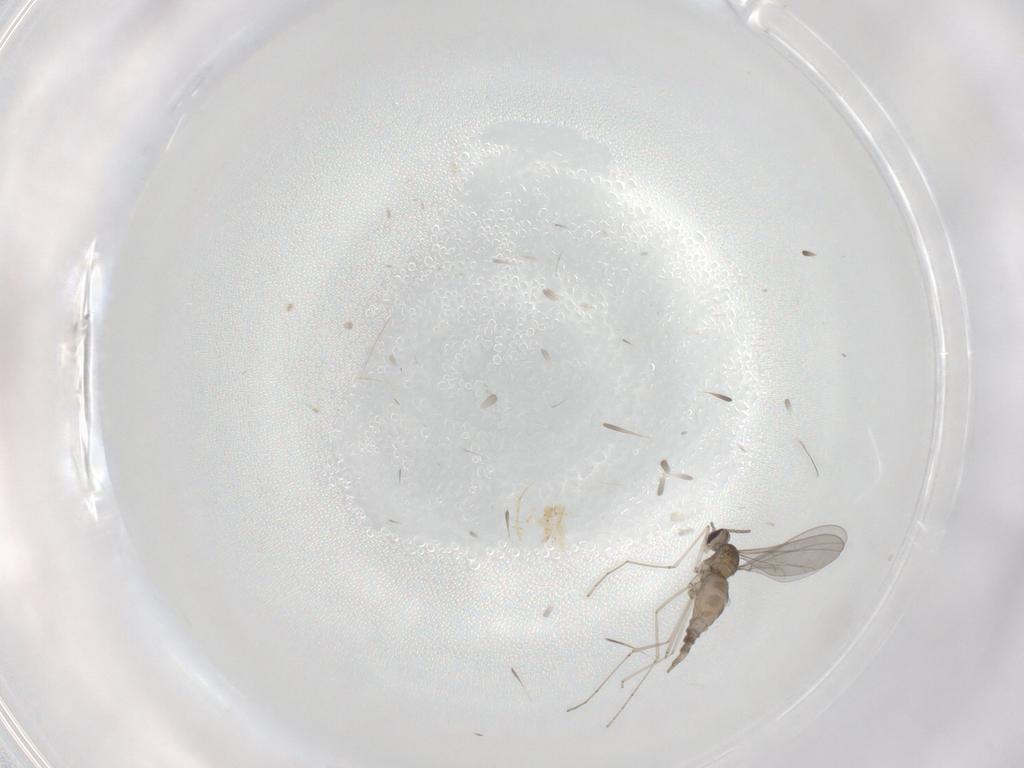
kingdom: Animalia
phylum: Arthropoda
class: Insecta
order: Diptera
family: Cecidomyiidae
